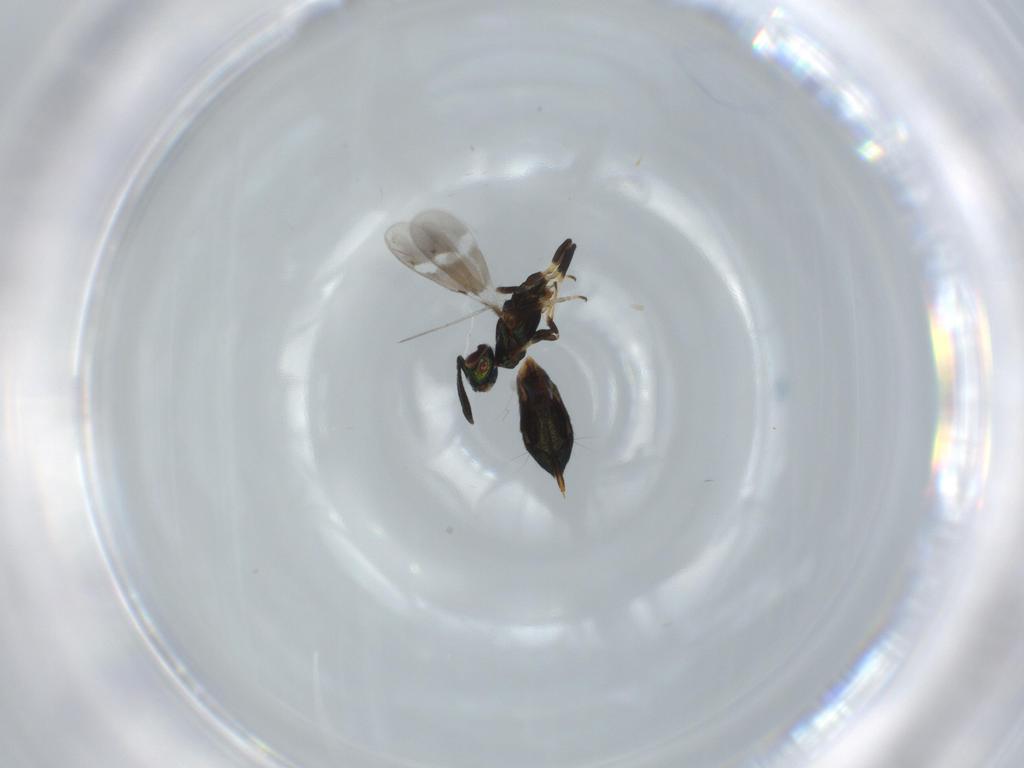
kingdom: Animalia
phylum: Arthropoda
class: Insecta
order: Hymenoptera
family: Eupelmidae
